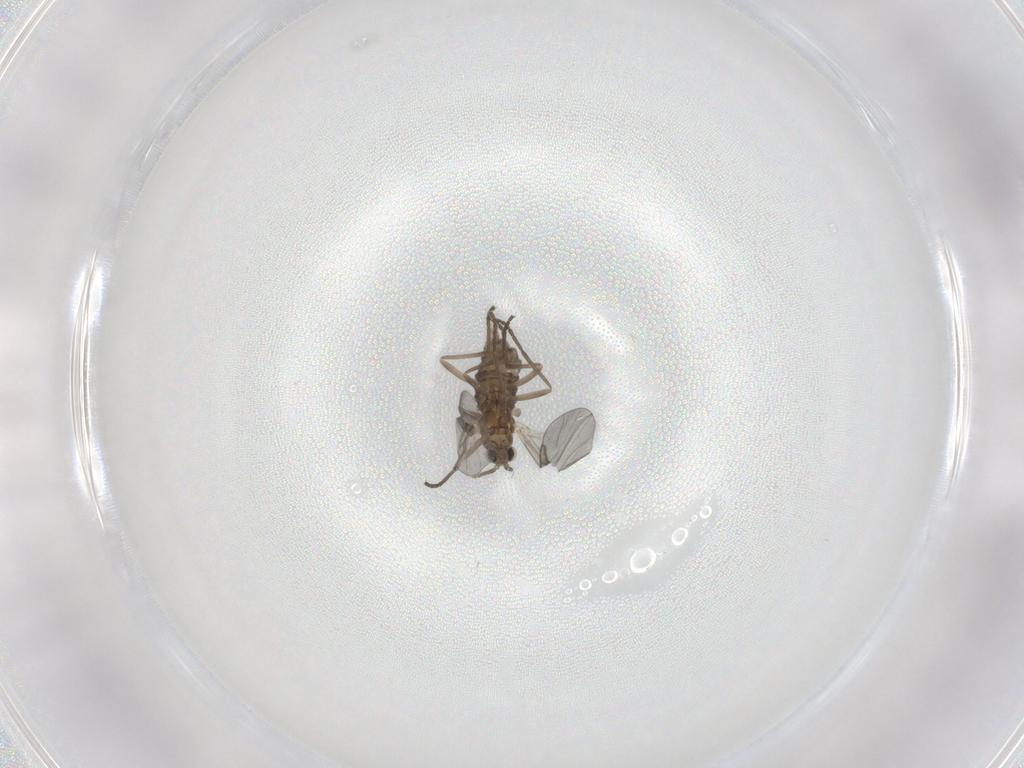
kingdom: Animalia
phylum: Arthropoda
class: Insecta
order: Diptera
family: Cecidomyiidae
